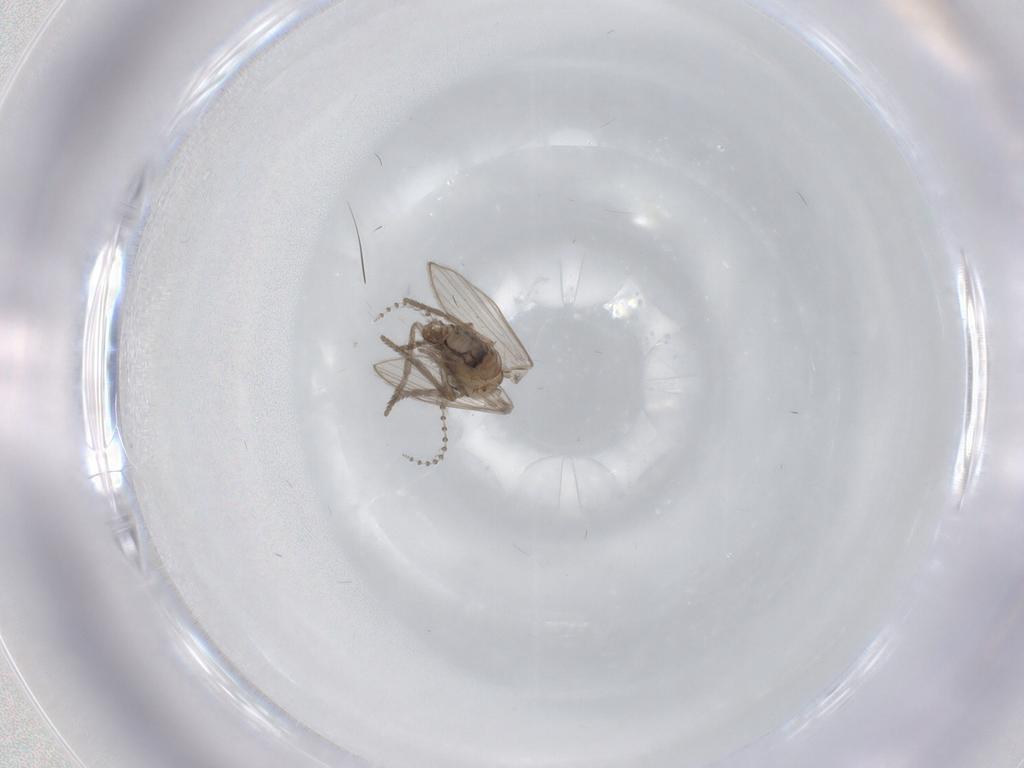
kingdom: Animalia
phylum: Arthropoda
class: Insecta
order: Diptera
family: Psychodidae
